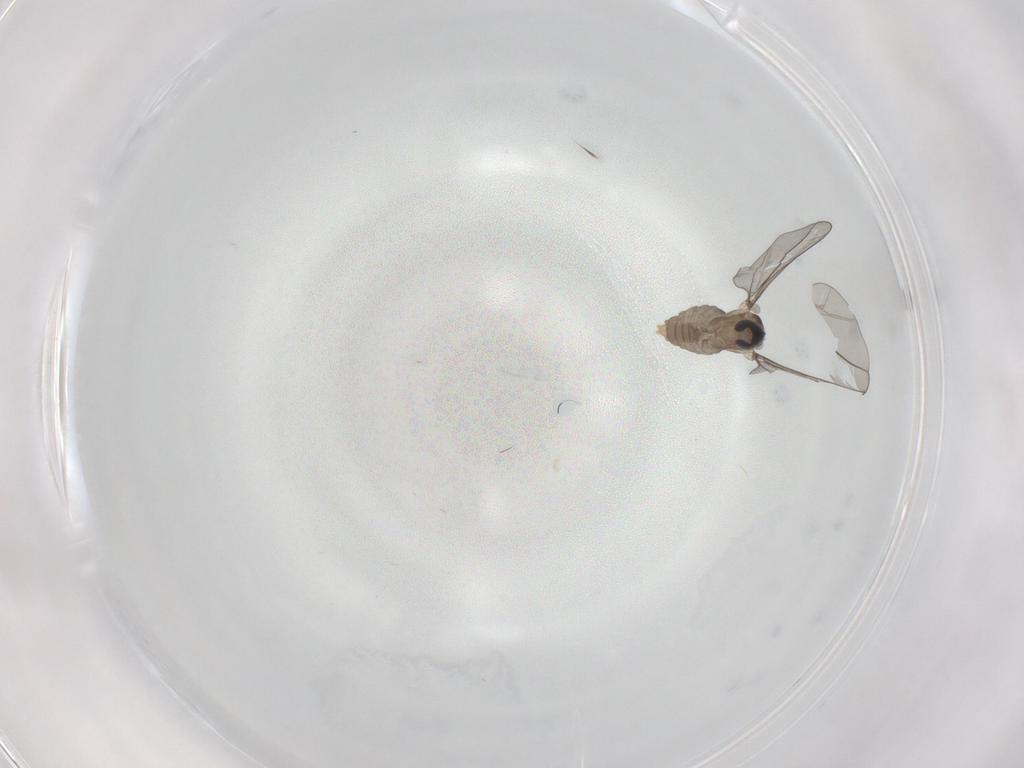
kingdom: Animalia
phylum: Arthropoda
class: Insecta
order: Diptera
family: Cecidomyiidae
